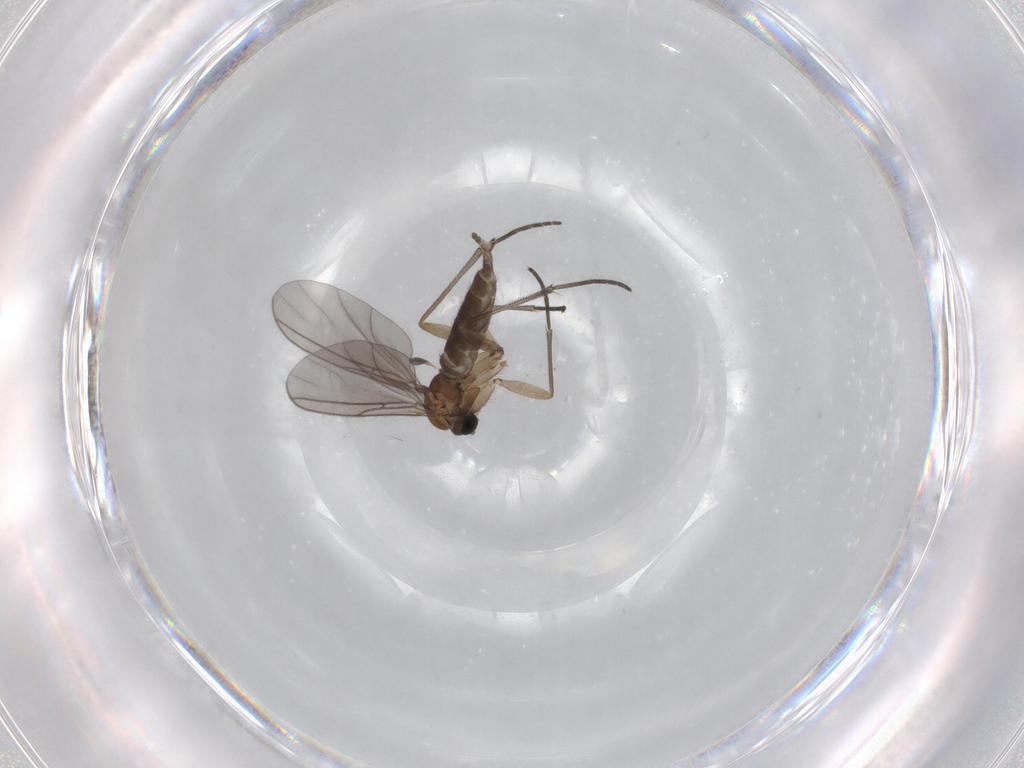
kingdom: Animalia
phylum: Arthropoda
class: Insecta
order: Diptera
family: Sciaridae
